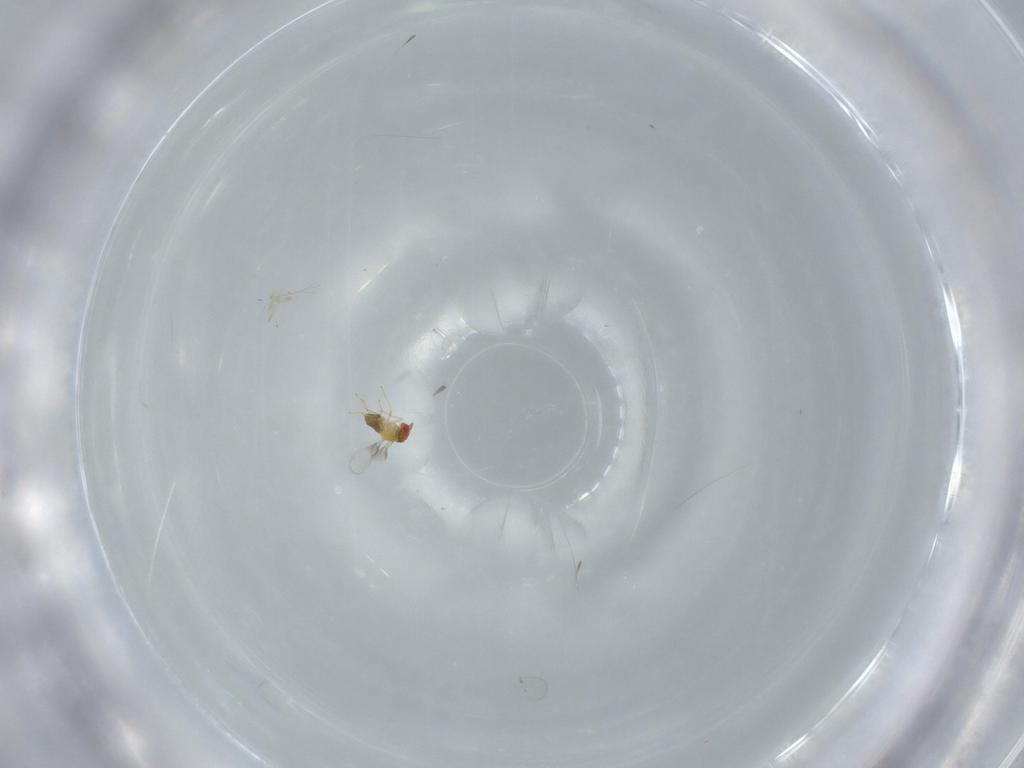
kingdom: Animalia
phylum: Arthropoda
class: Insecta
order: Hymenoptera
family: Trichogrammatidae
